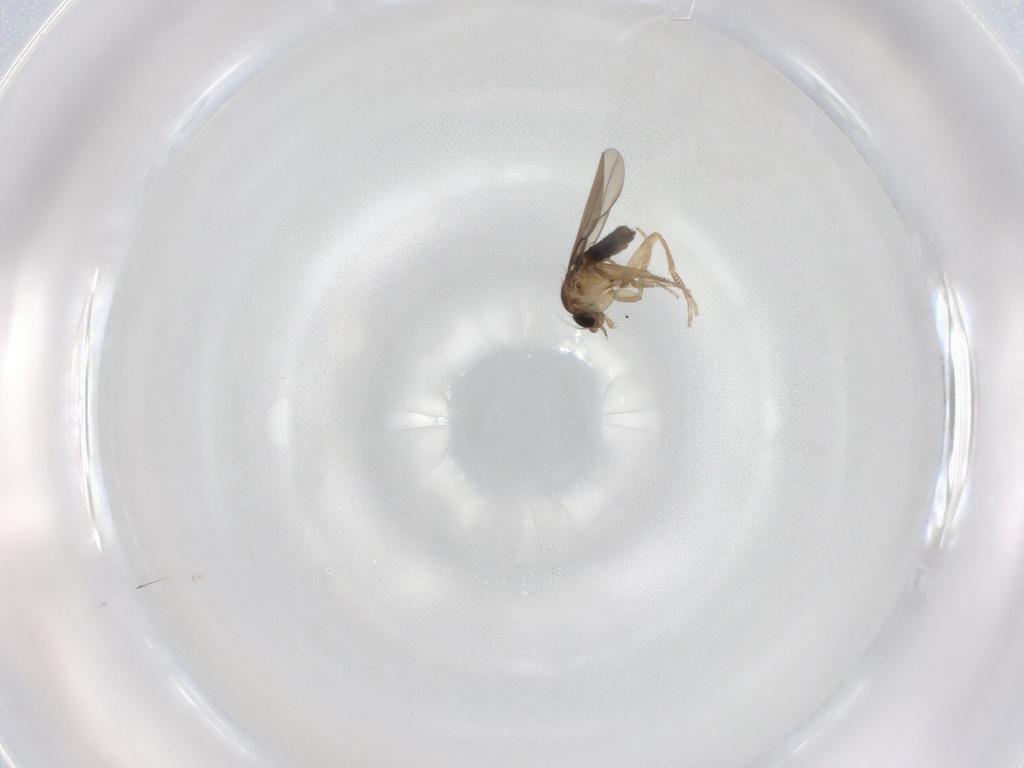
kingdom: Animalia
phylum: Arthropoda
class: Insecta
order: Diptera
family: Phoridae
